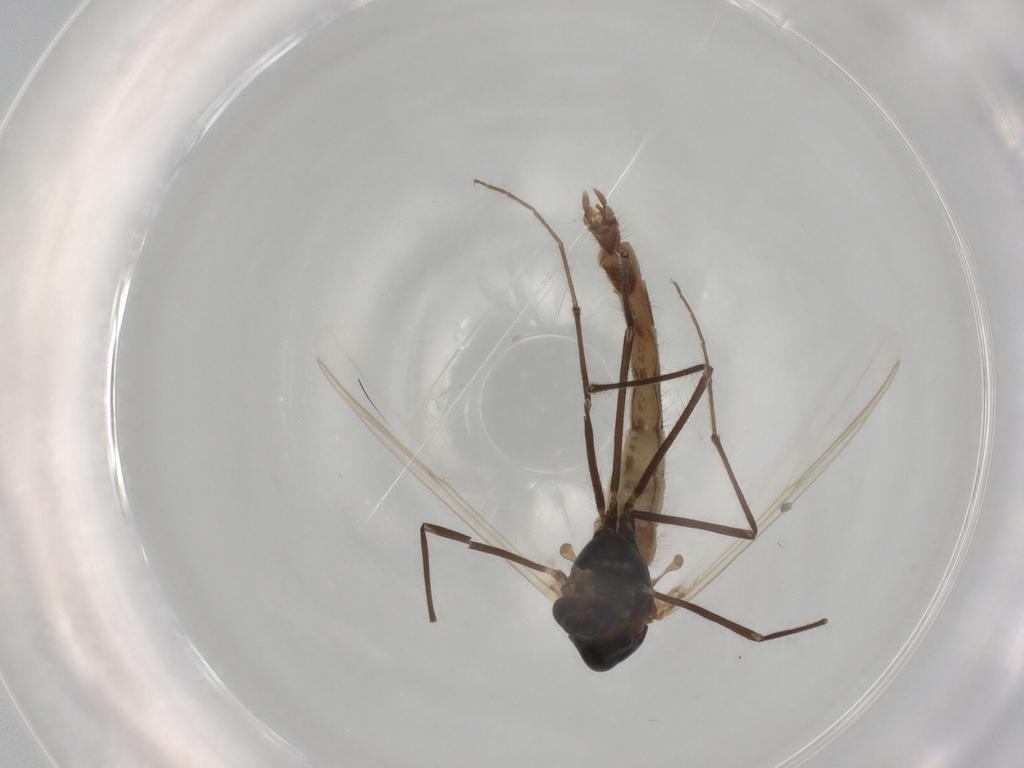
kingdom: Animalia
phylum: Arthropoda
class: Insecta
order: Diptera
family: Chironomidae
